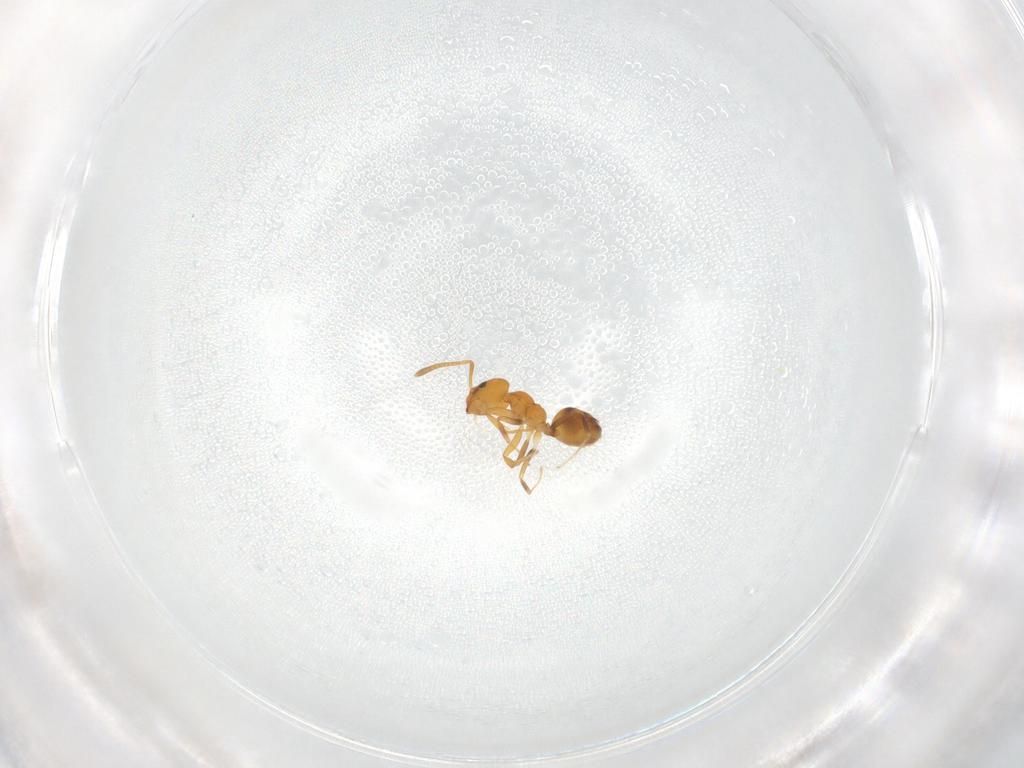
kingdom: Animalia
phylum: Arthropoda
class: Insecta
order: Hymenoptera
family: Formicidae
